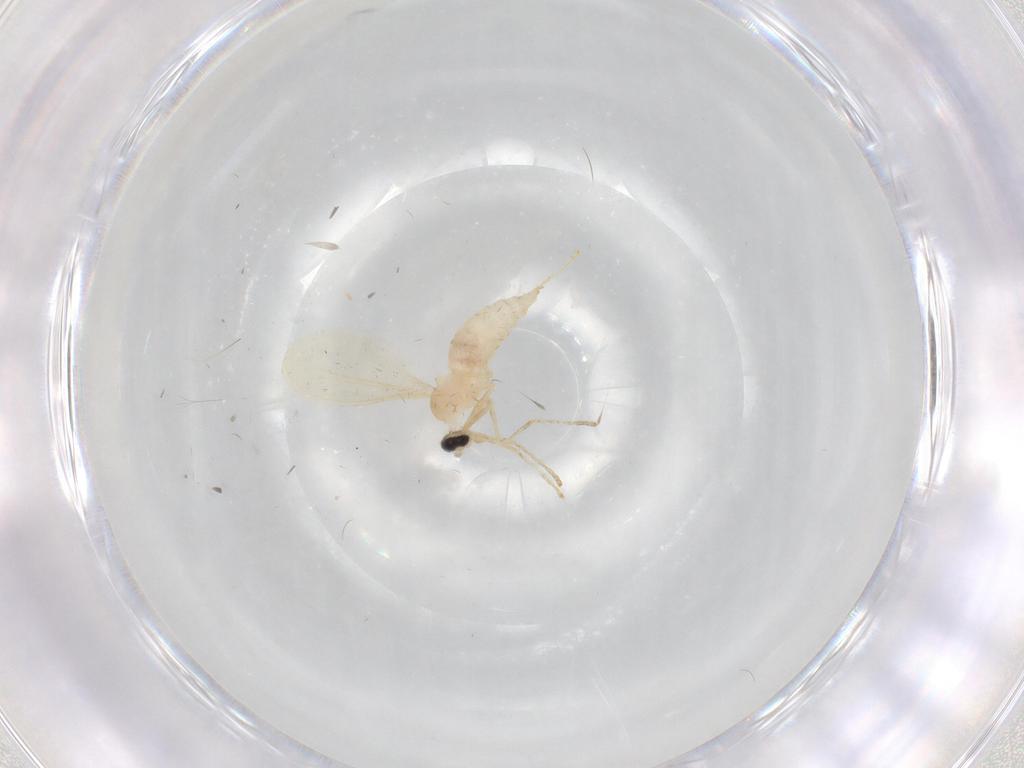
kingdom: Animalia
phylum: Arthropoda
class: Insecta
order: Diptera
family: Cecidomyiidae
